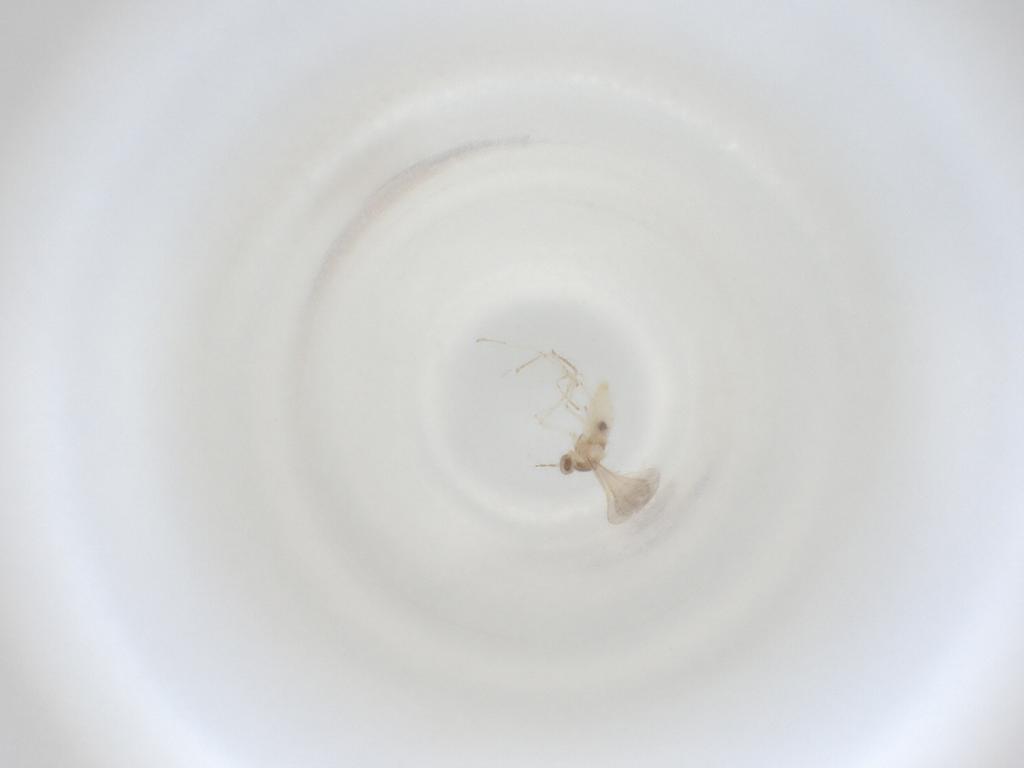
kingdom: Animalia
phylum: Arthropoda
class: Insecta
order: Diptera
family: Cecidomyiidae
